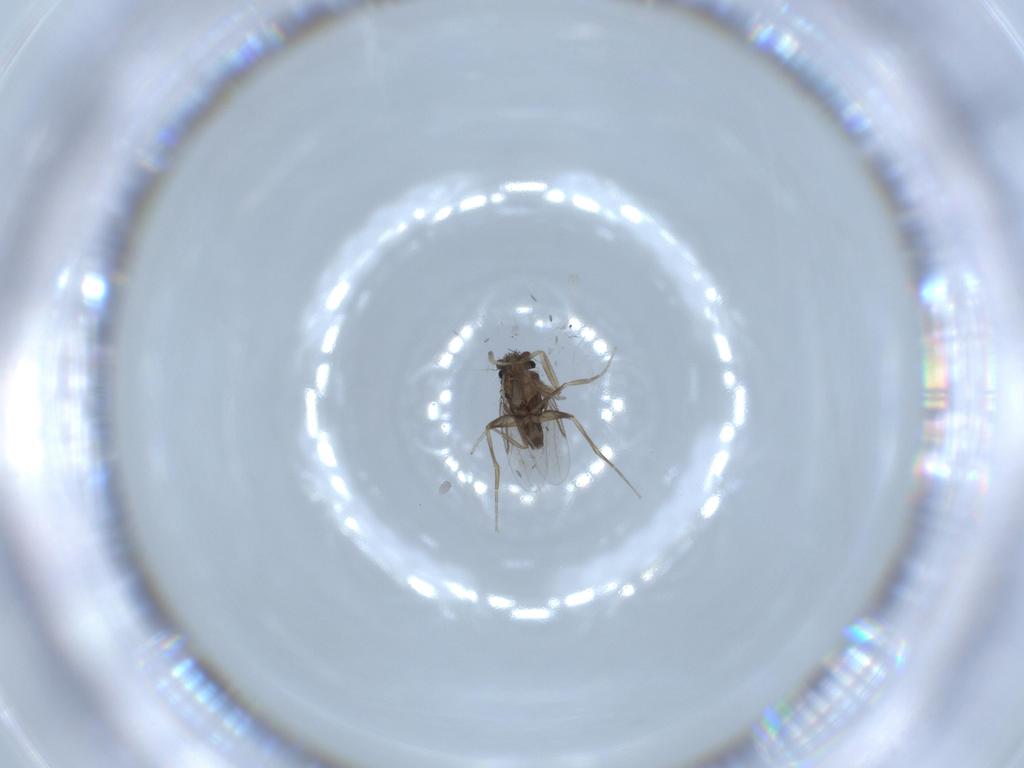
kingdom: Animalia
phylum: Arthropoda
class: Insecta
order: Diptera
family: Phoridae
